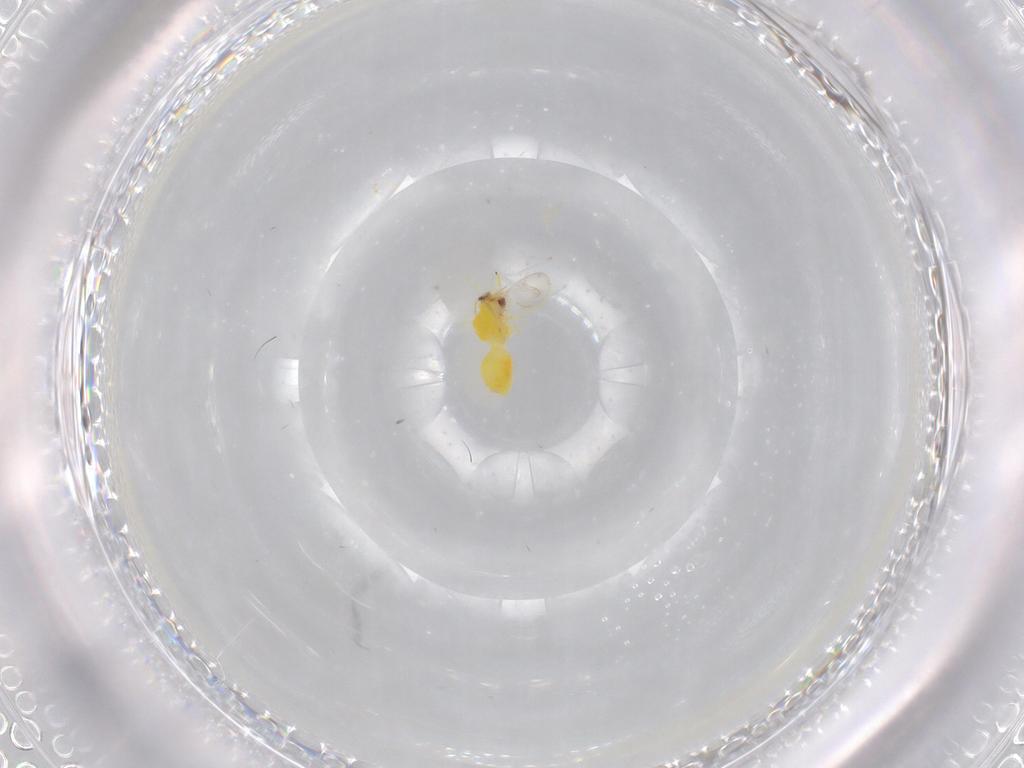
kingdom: Animalia
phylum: Arthropoda
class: Insecta
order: Hemiptera
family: Aleyrodidae
